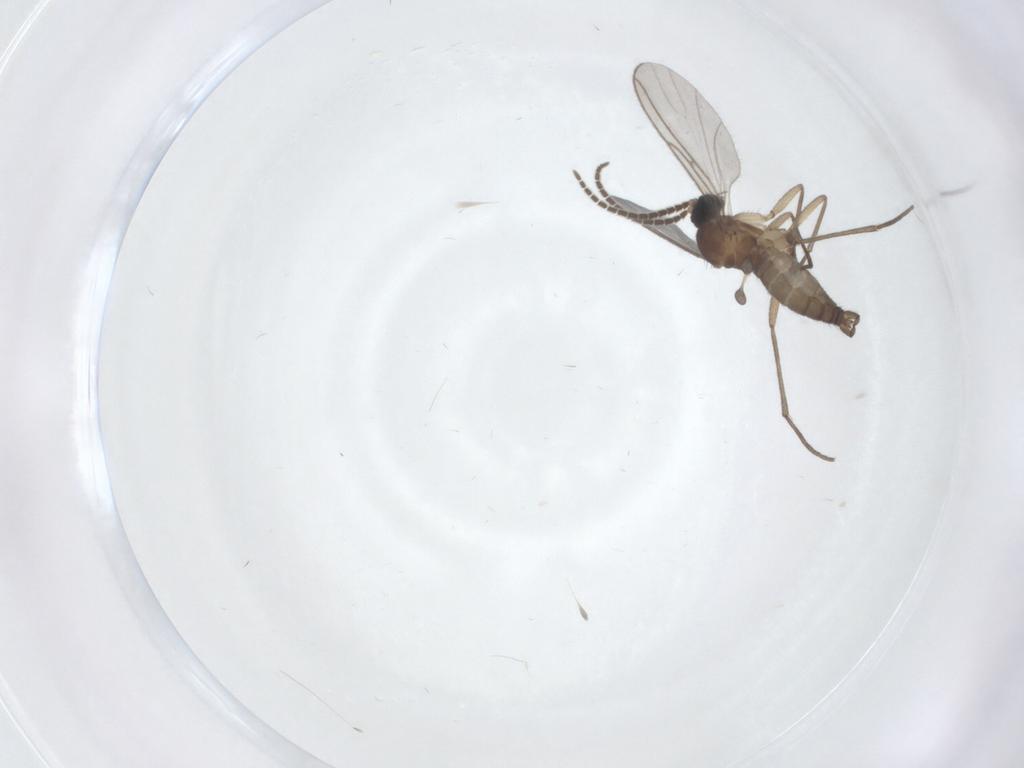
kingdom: Animalia
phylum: Arthropoda
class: Insecta
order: Diptera
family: Sciaridae
